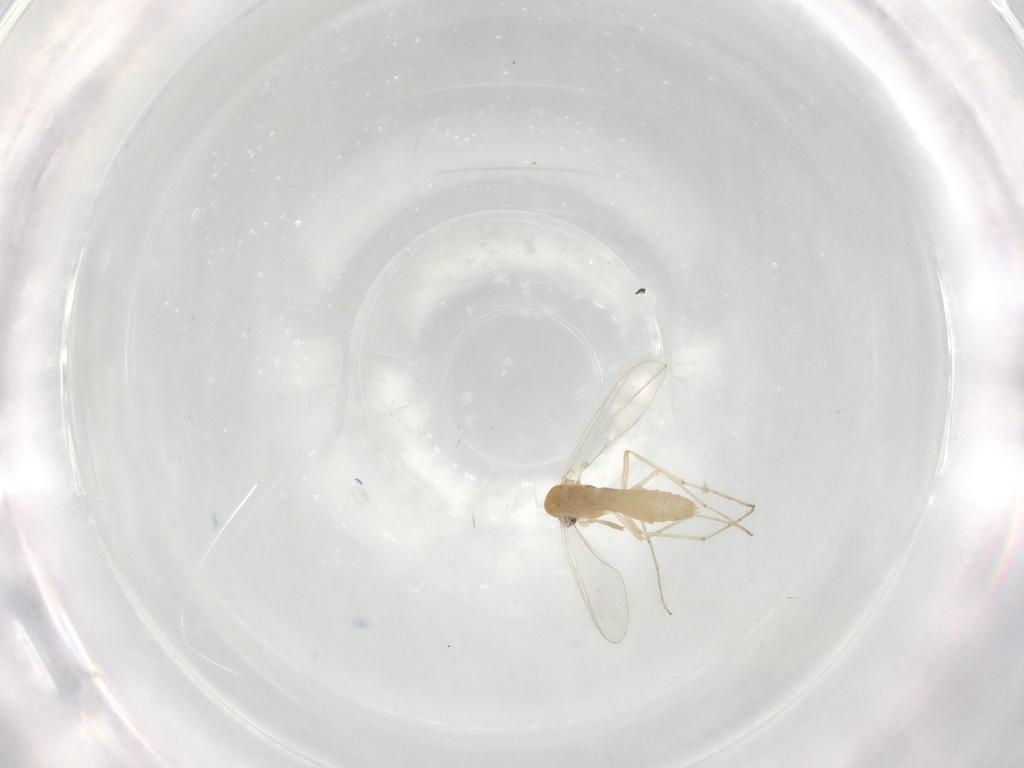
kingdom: Animalia
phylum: Arthropoda
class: Insecta
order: Diptera
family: Chironomidae
